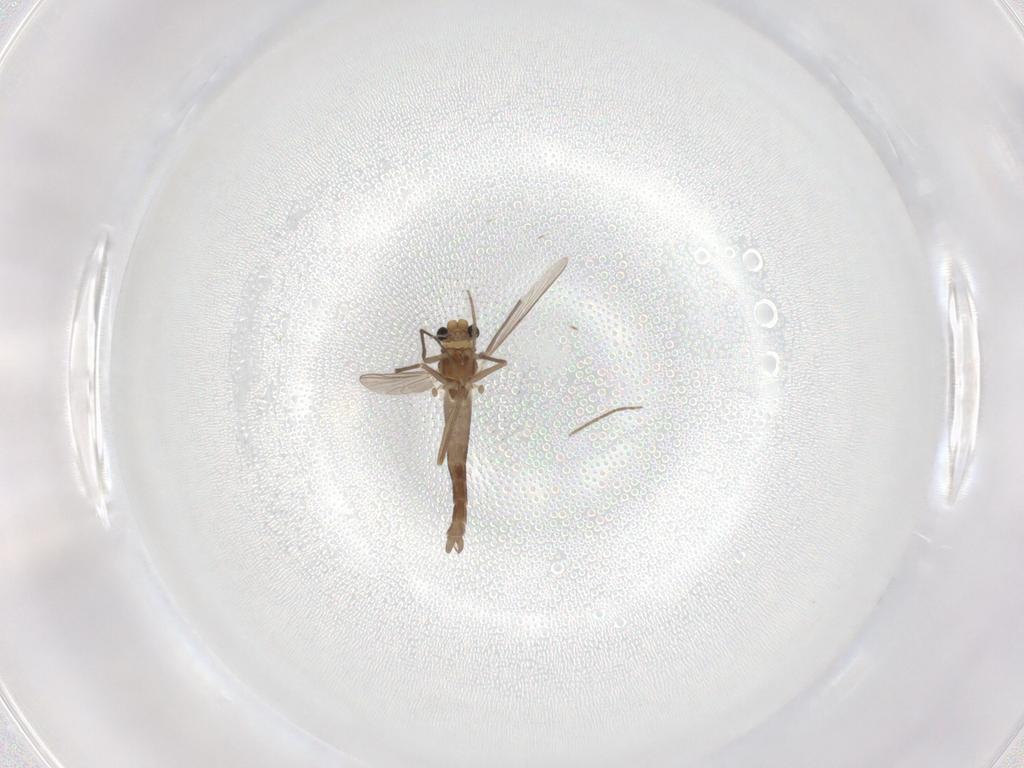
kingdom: Animalia
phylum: Arthropoda
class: Insecta
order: Diptera
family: Chironomidae
